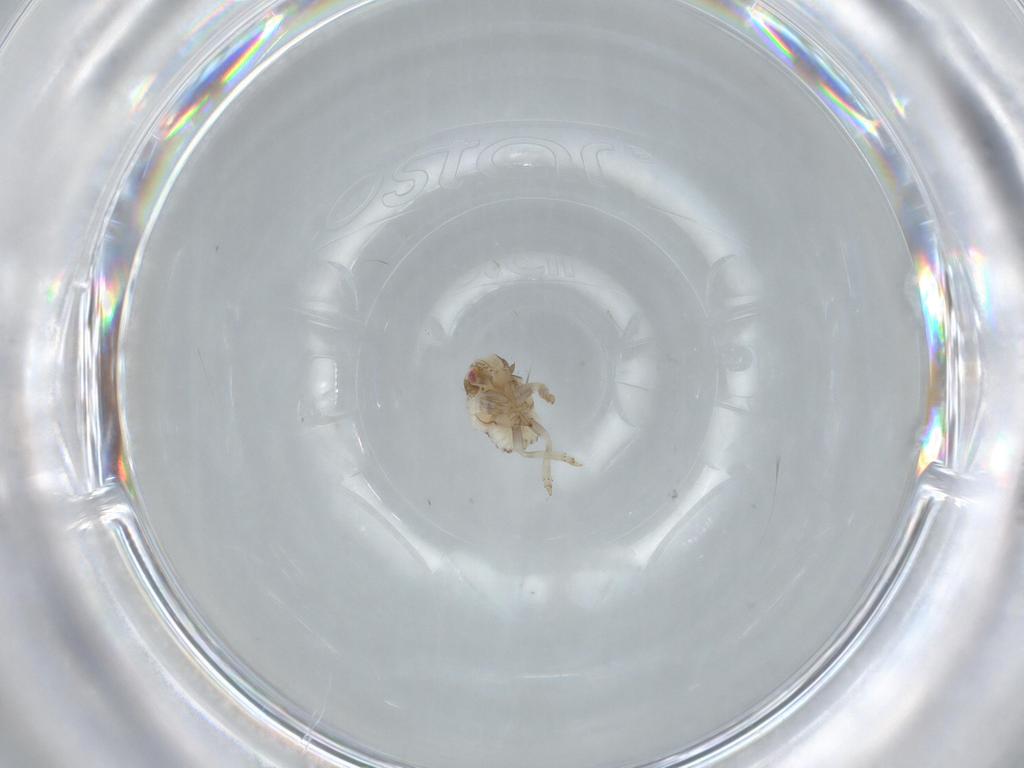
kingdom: Animalia
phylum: Arthropoda
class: Insecta
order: Hemiptera
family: Acanaloniidae
